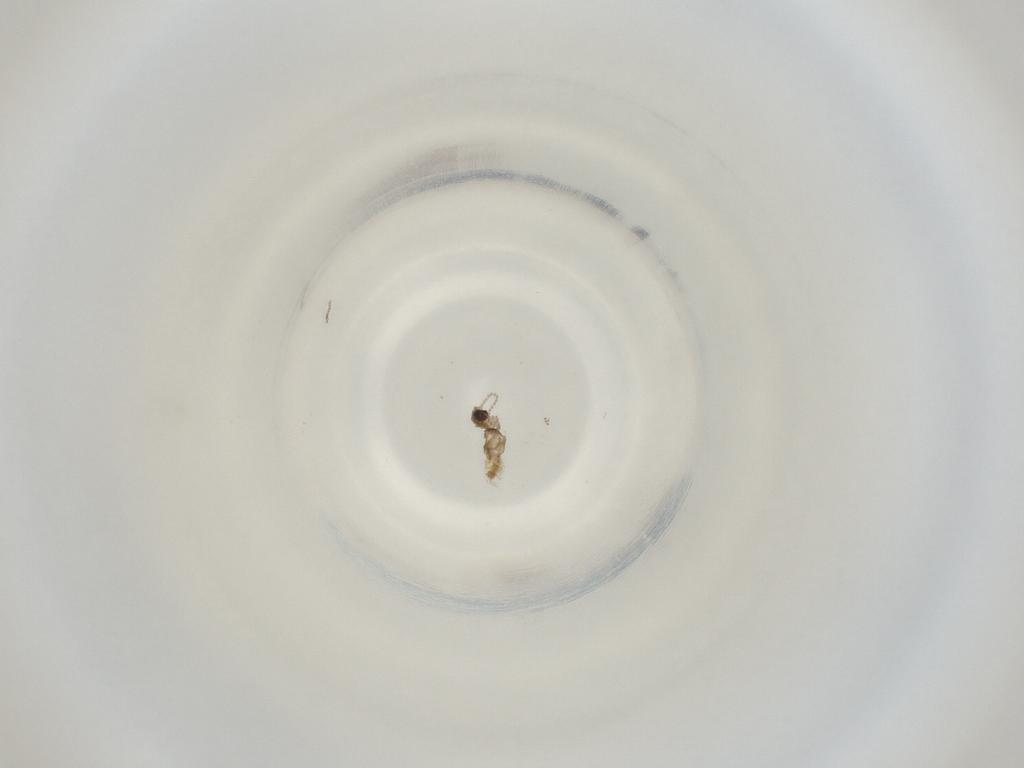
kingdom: Animalia
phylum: Arthropoda
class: Insecta
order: Diptera
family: Cecidomyiidae
